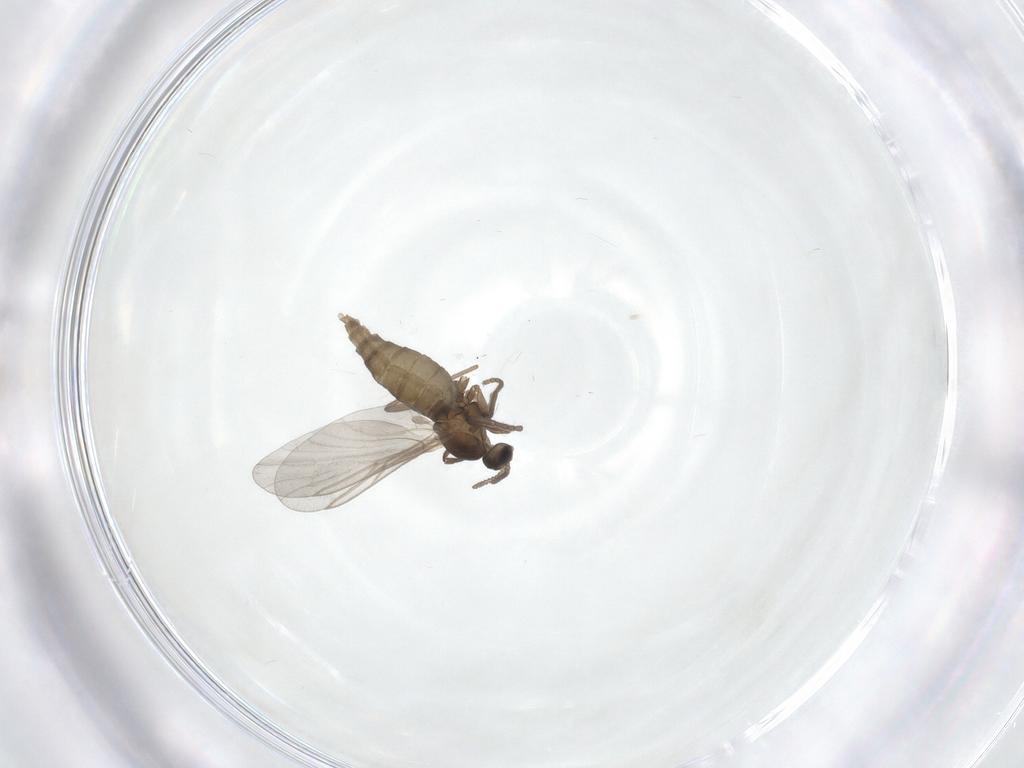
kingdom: Animalia
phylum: Arthropoda
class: Insecta
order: Diptera
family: Cecidomyiidae
